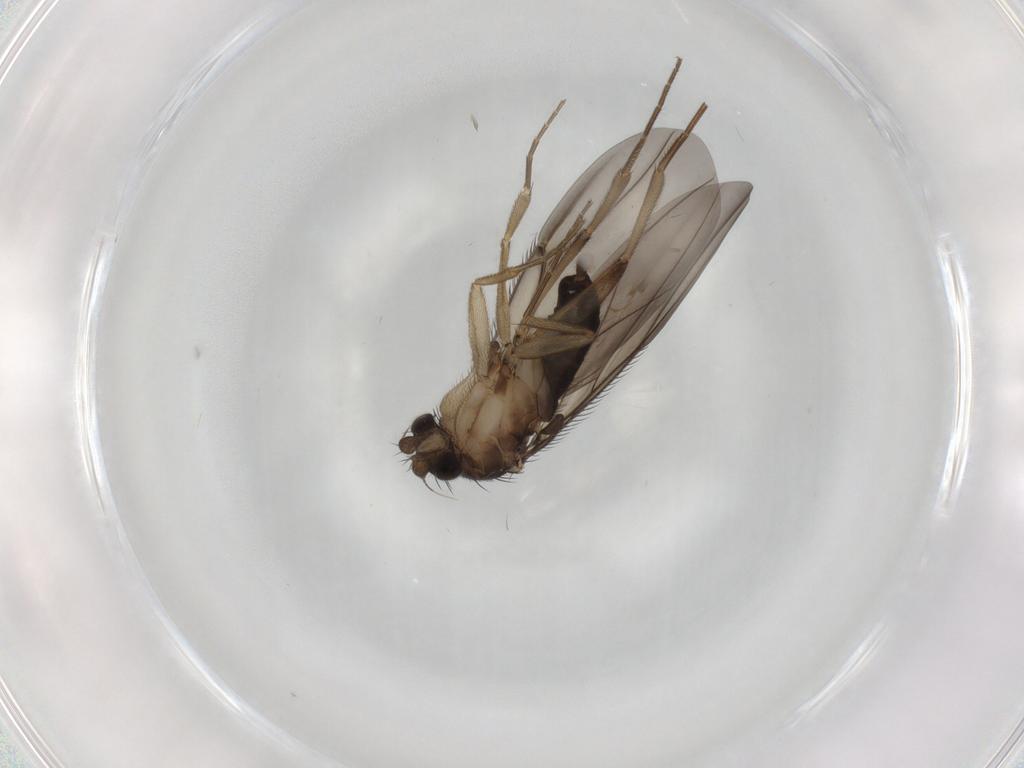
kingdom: Animalia
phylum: Arthropoda
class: Insecta
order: Diptera
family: Phoridae
